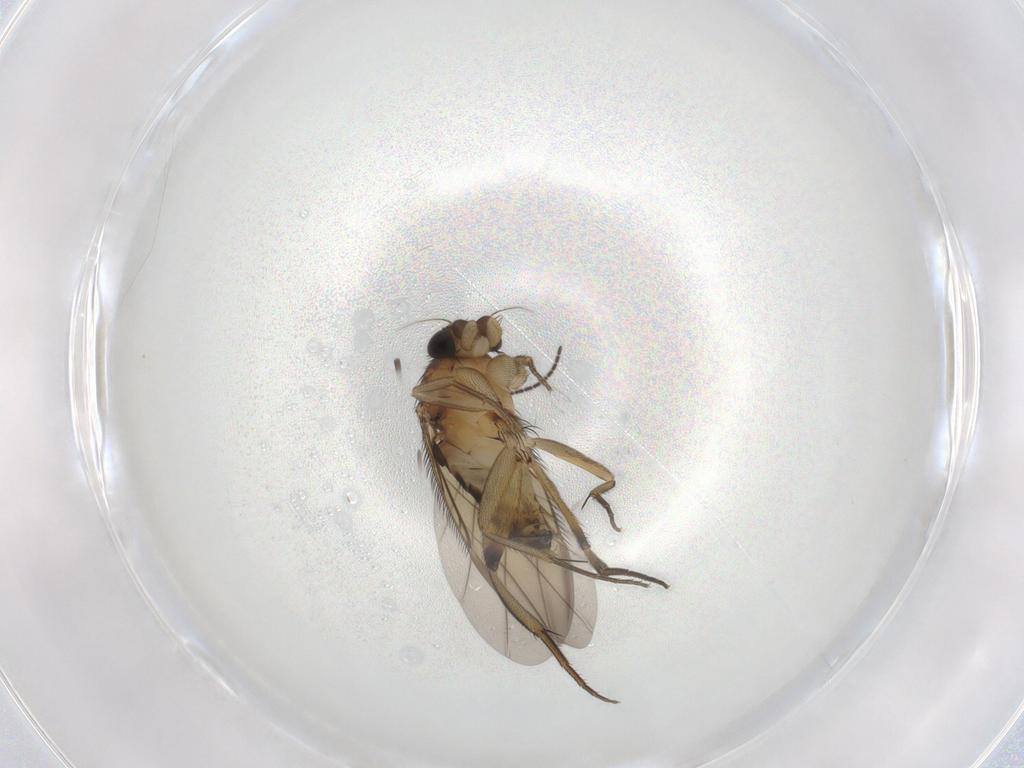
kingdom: Animalia
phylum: Arthropoda
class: Insecta
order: Diptera
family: Phoridae
